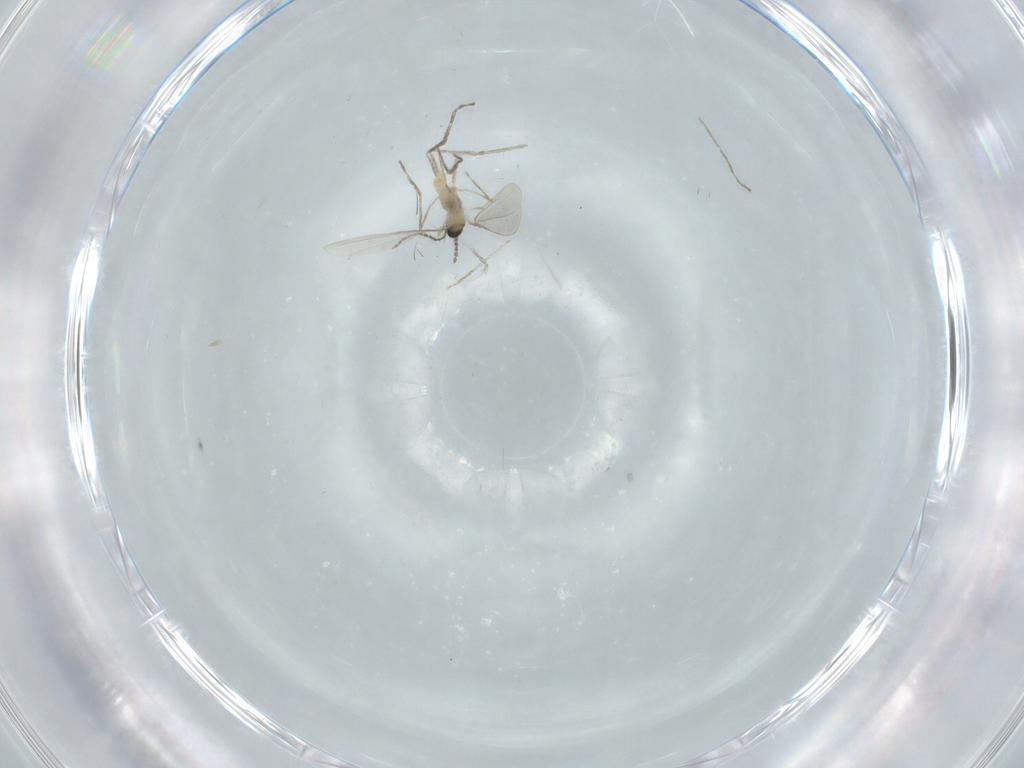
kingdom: Animalia
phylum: Arthropoda
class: Insecta
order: Diptera
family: Cecidomyiidae
